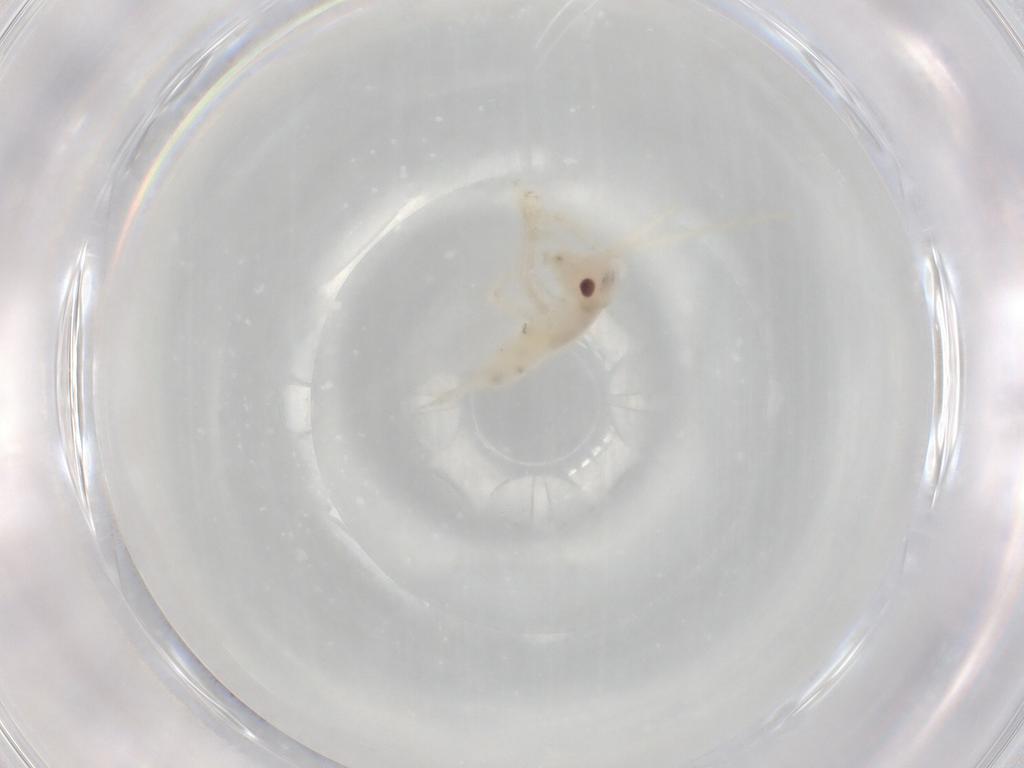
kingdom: Animalia
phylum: Arthropoda
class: Insecta
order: Orthoptera
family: Trigonidiidae
